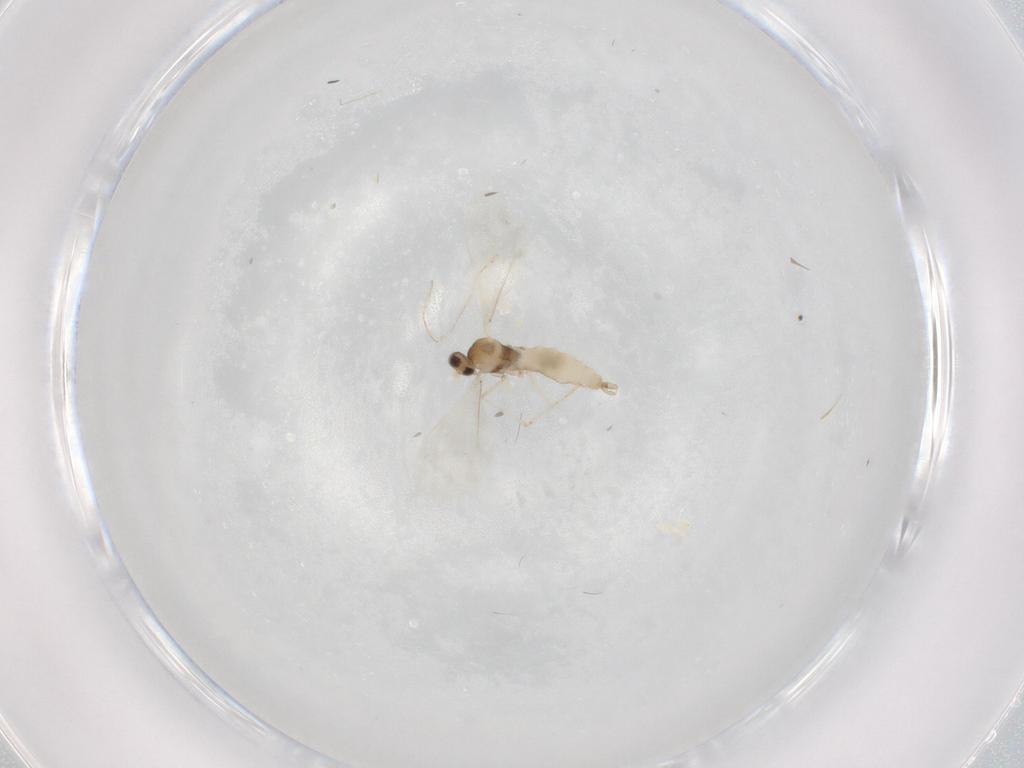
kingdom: Animalia
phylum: Arthropoda
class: Insecta
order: Diptera
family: Cecidomyiidae
